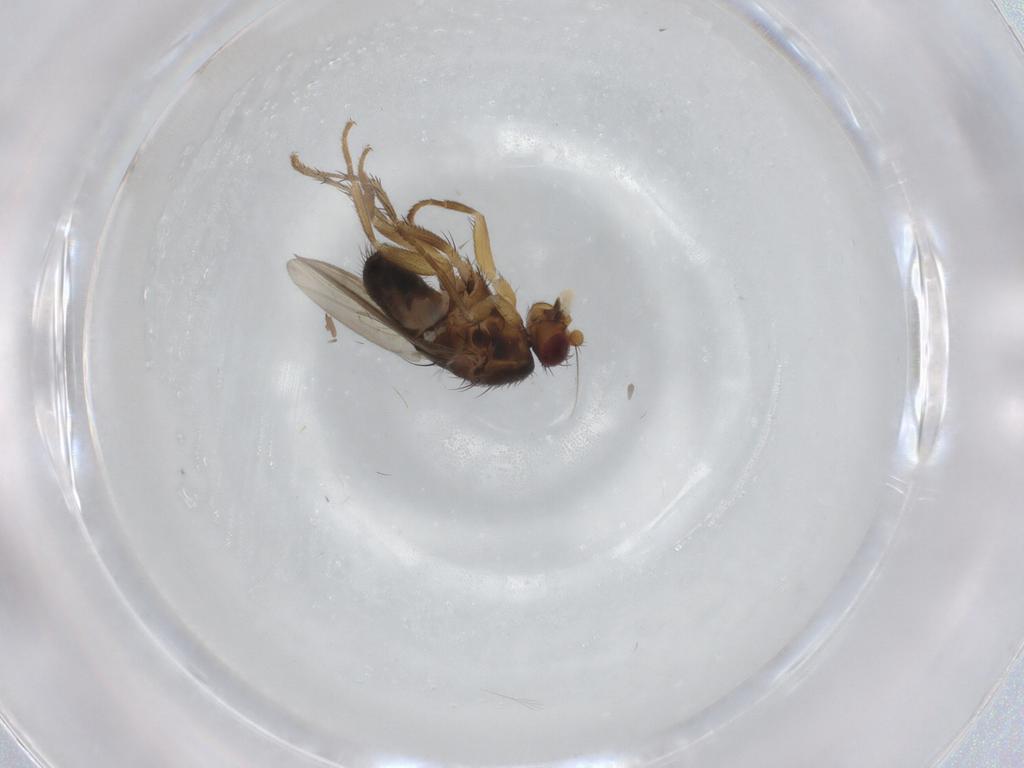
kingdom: Animalia
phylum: Arthropoda
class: Insecta
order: Diptera
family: Sphaeroceridae
